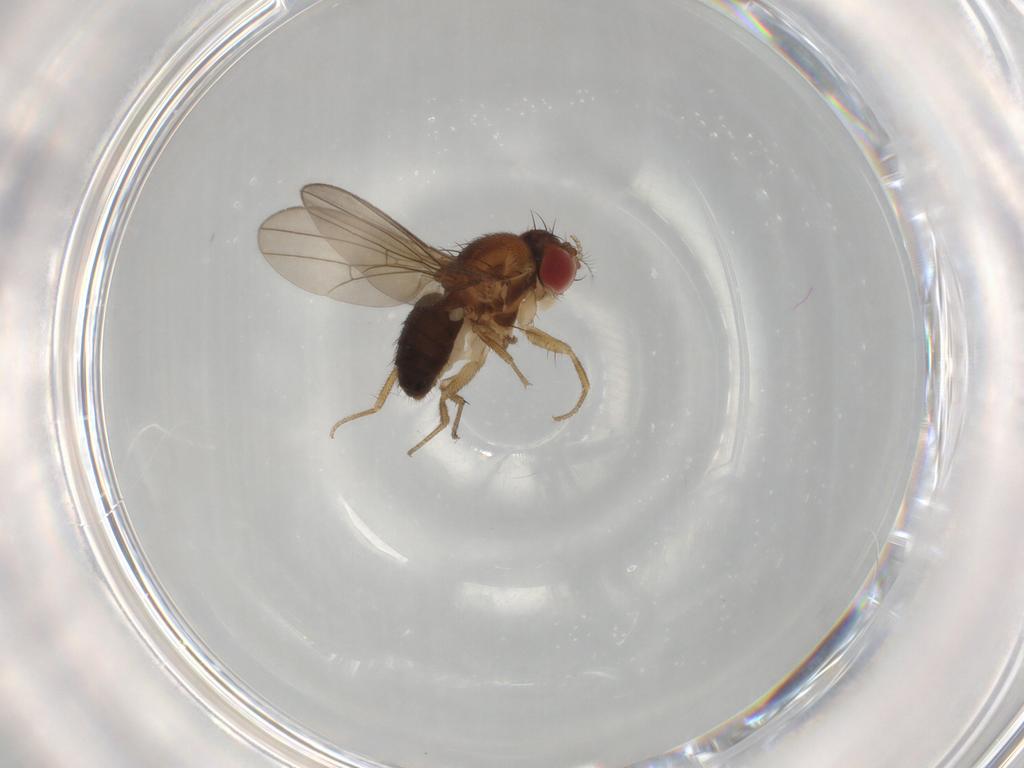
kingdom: Animalia
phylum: Arthropoda
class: Insecta
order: Diptera
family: Drosophilidae
